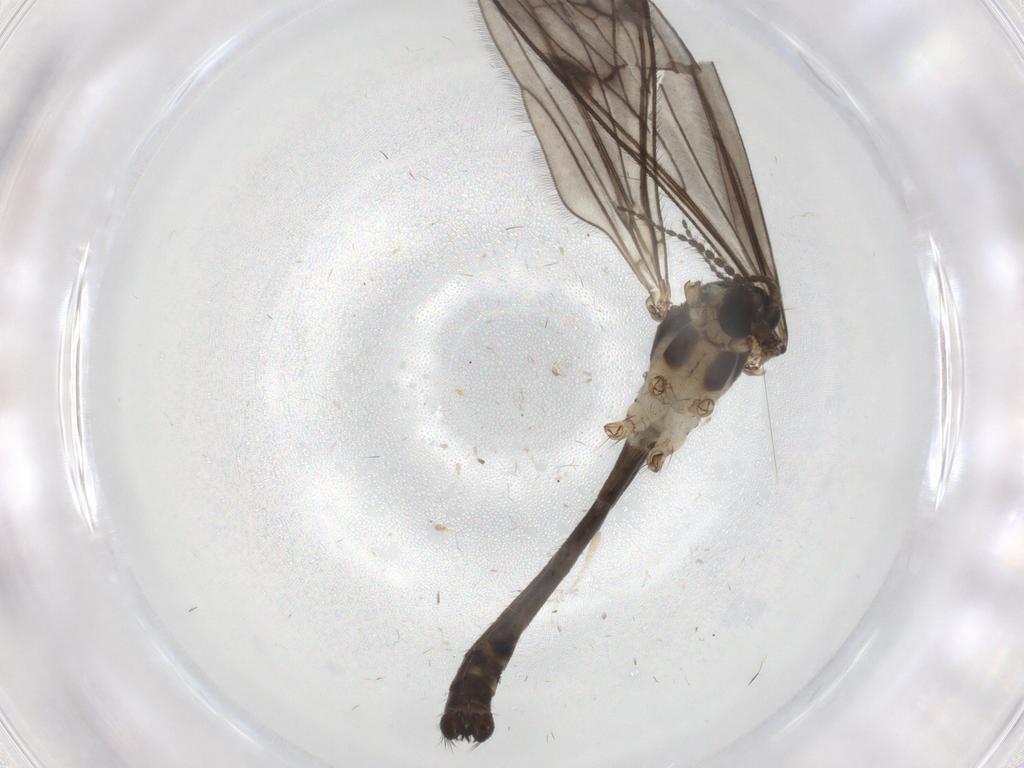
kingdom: Animalia
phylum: Arthropoda
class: Insecta
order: Diptera
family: Limoniidae
